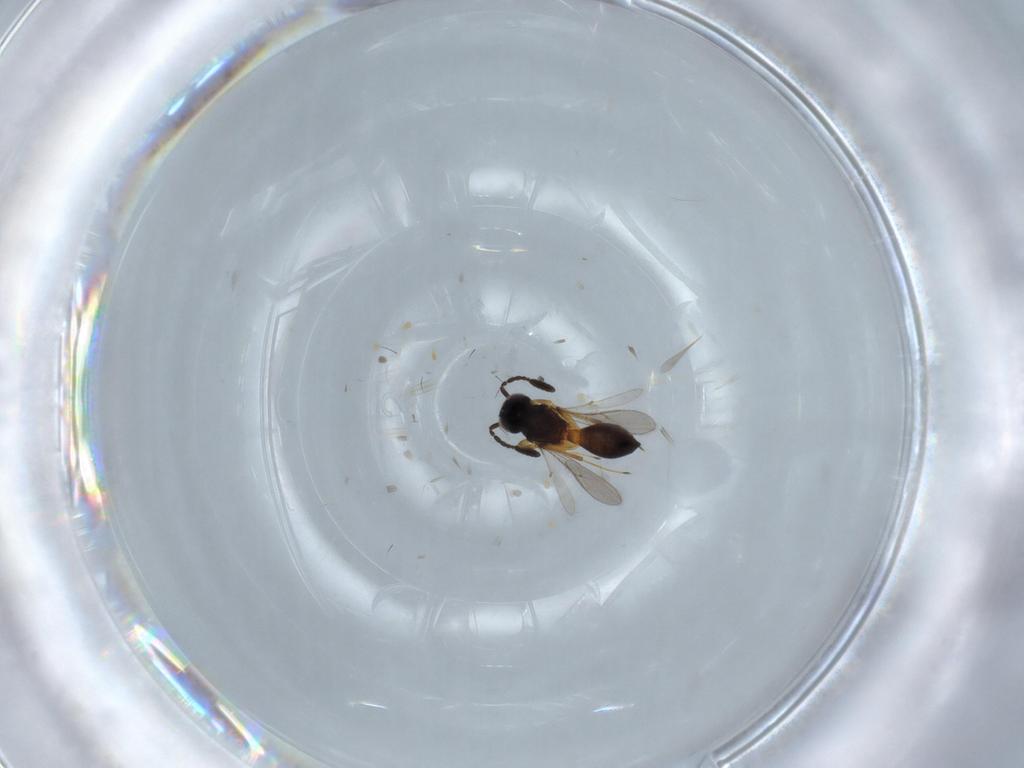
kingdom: Animalia
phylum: Arthropoda
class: Insecta
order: Hymenoptera
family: Scelionidae
